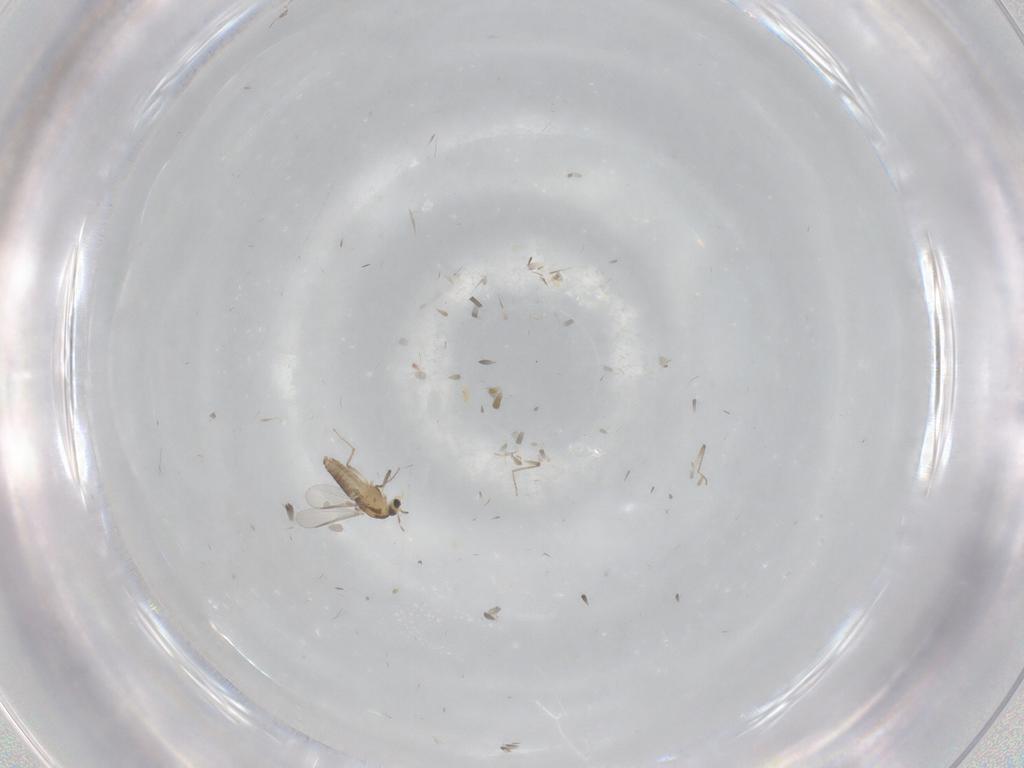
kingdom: Animalia
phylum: Arthropoda
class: Insecta
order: Diptera
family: Chironomidae
